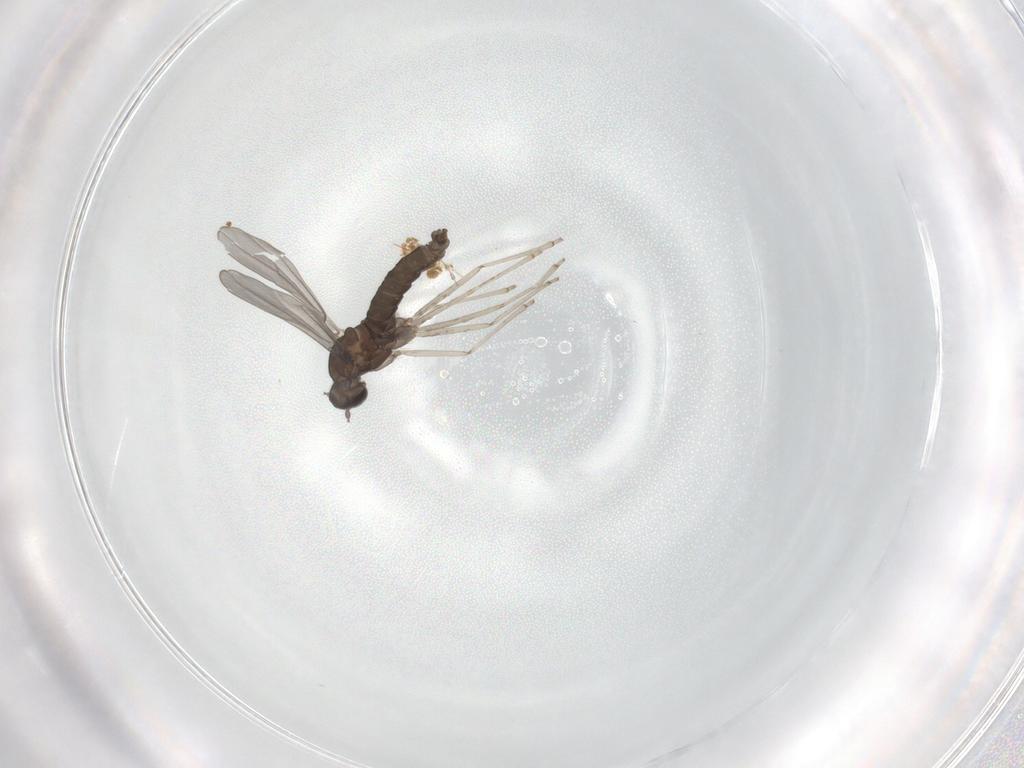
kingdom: Animalia
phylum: Arthropoda
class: Insecta
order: Diptera
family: Cecidomyiidae
